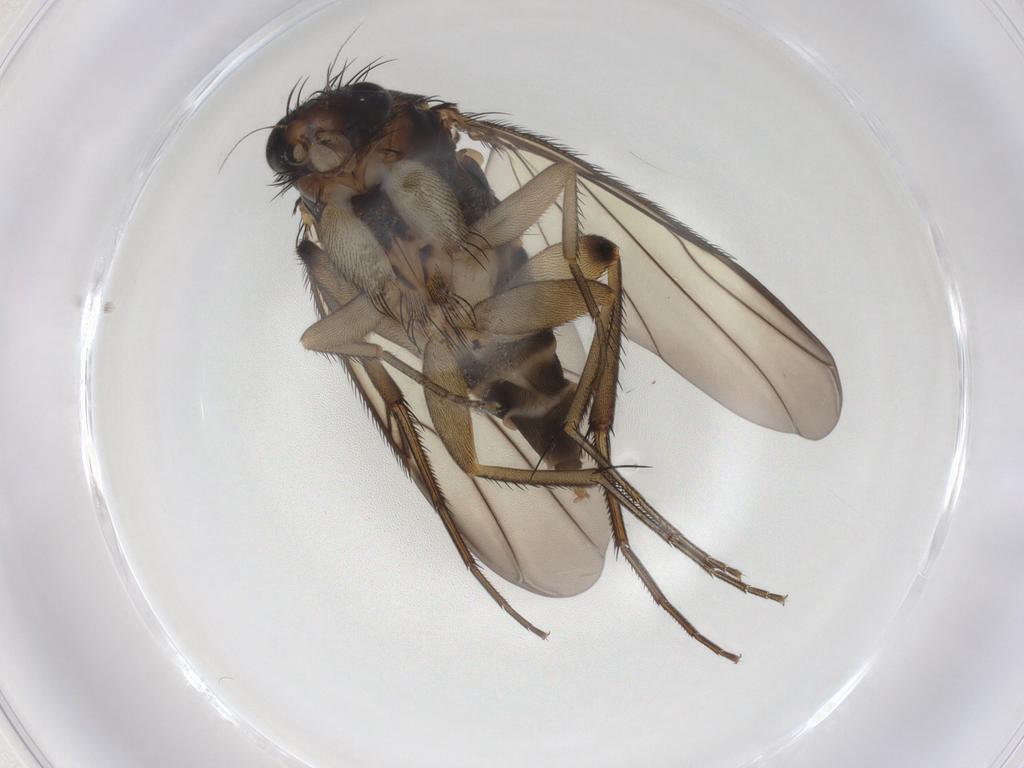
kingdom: Animalia
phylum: Arthropoda
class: Insecta
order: Diptera
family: Phoridae
